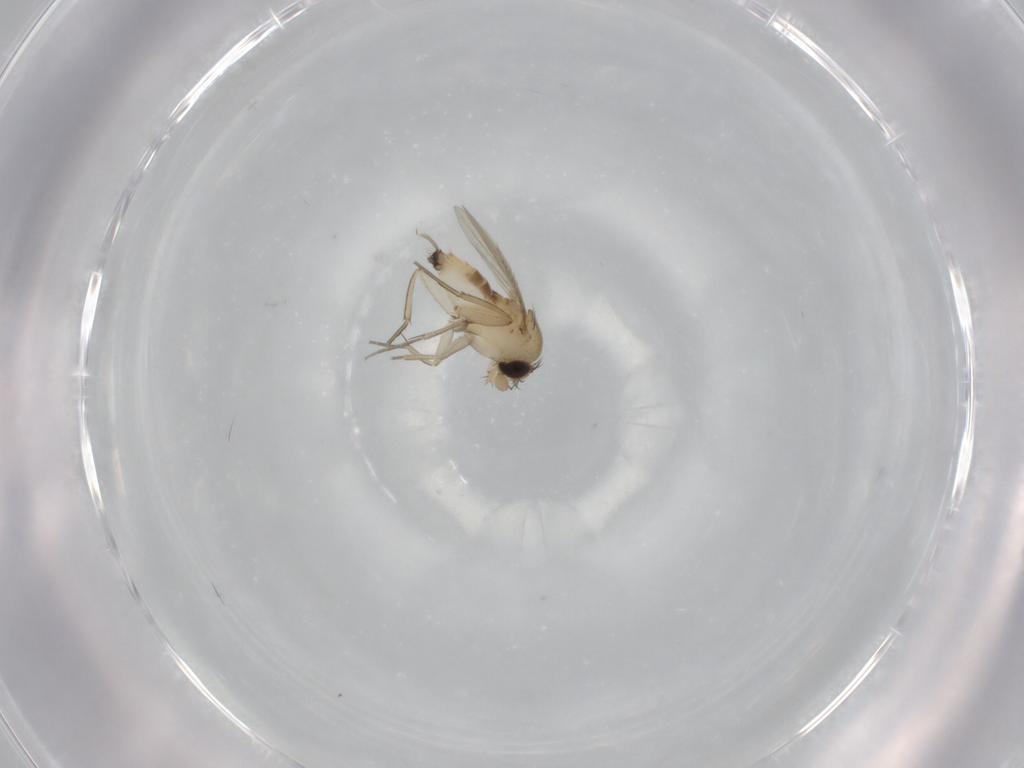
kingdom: Animalia
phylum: Arthropoda
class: Insecta
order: Diptera
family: Phoridae
